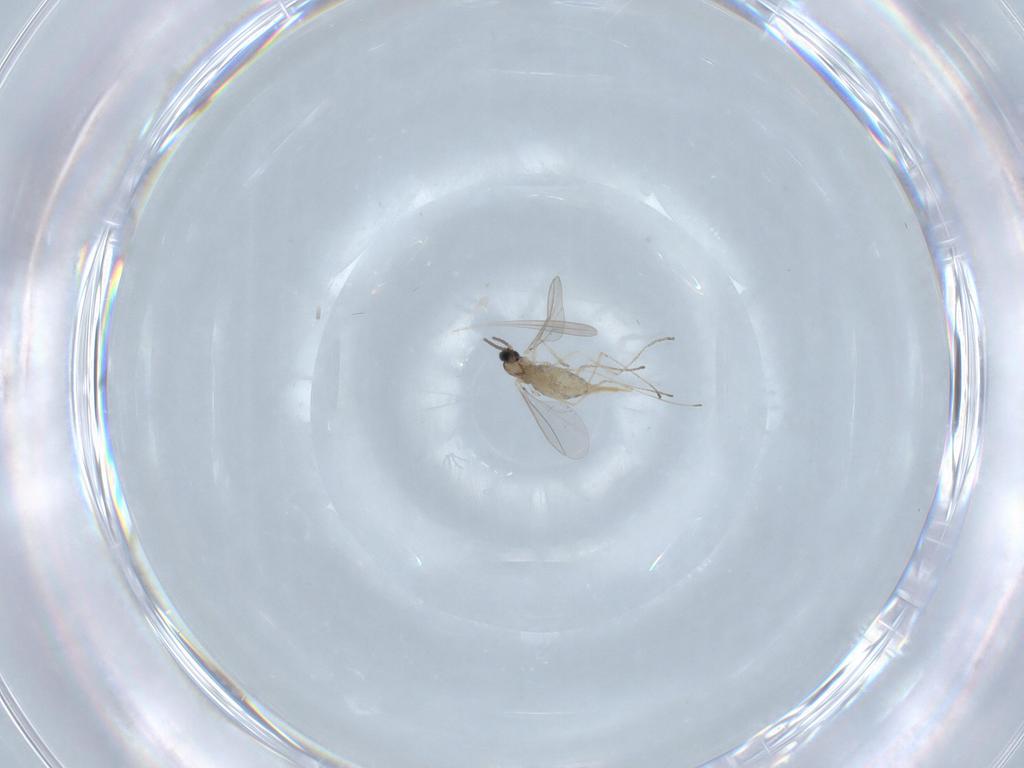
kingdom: Animalia
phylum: Arthropoda
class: Insecta
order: Diptera
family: Cecidomyiidae
